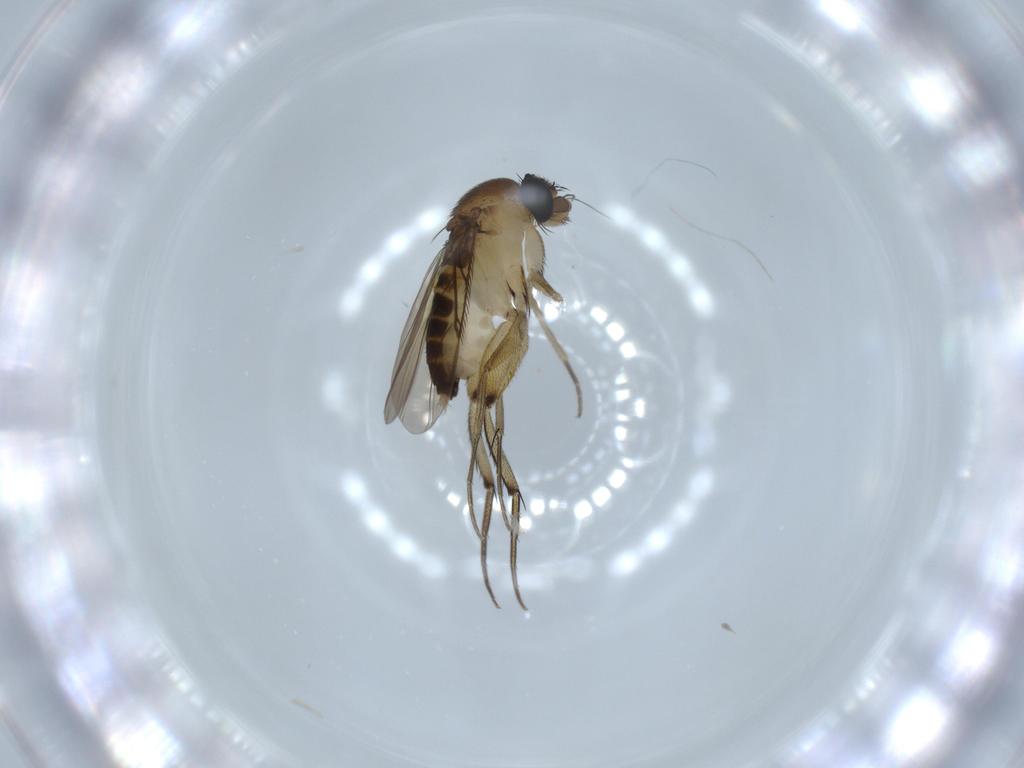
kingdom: Animalia
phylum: Arthropoda
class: Insecta
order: Diptera
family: Phoridae
